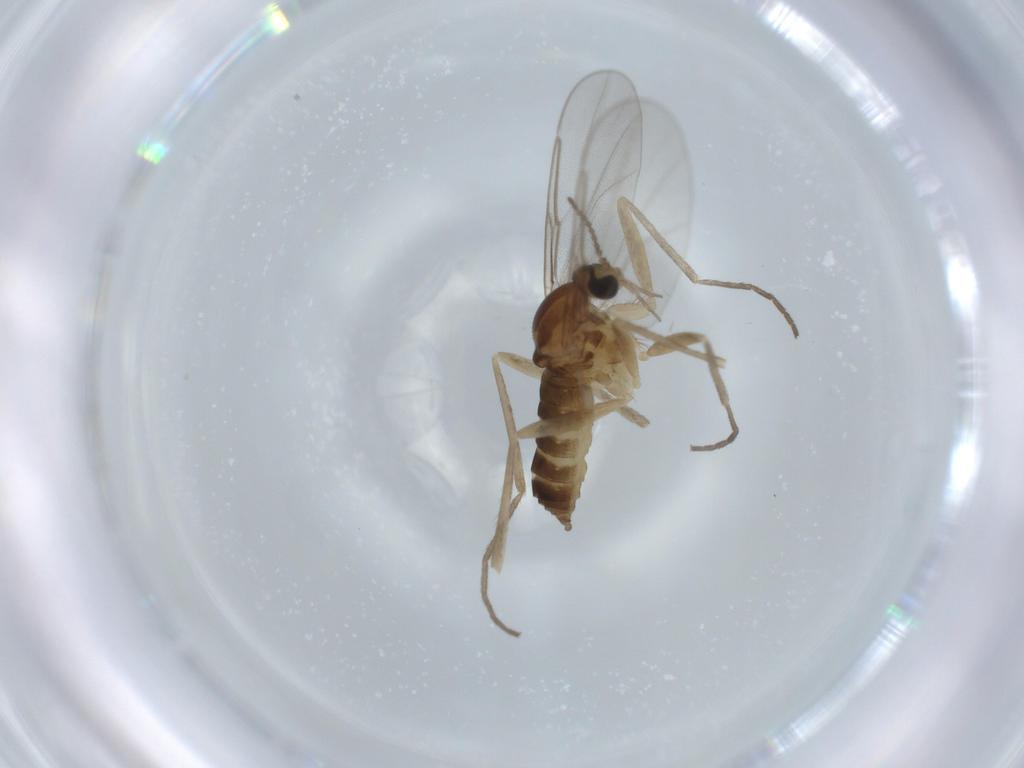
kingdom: Animalia
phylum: Arthropoda
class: Insecta
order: Diptera
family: Cecidomyiidae
